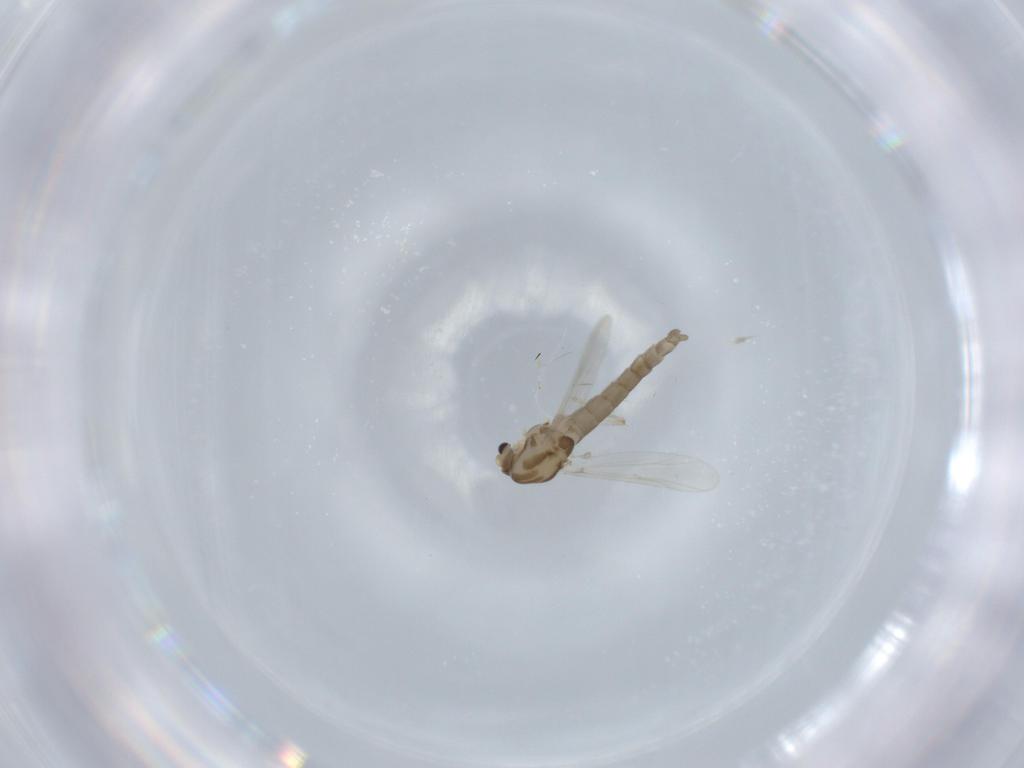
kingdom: Animalia
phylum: Arthropoda
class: Insecta
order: Diptera
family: Chironomidae
